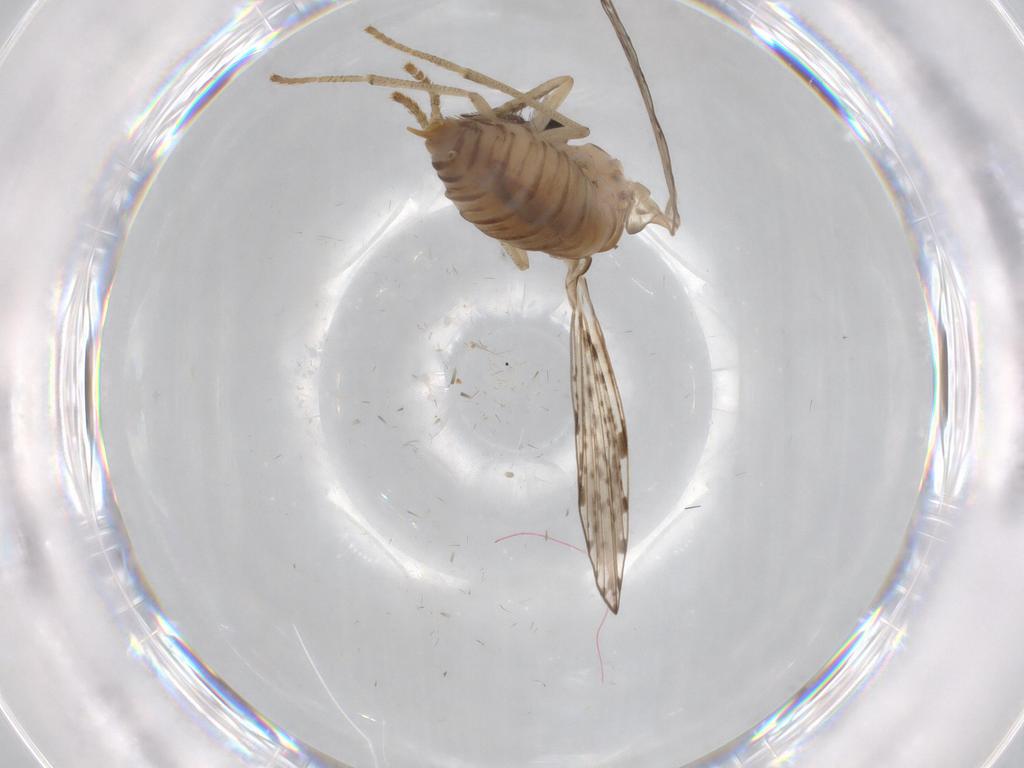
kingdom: Animalia
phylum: Arthropoda
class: Insecta
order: Diptera
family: Psychodidae
